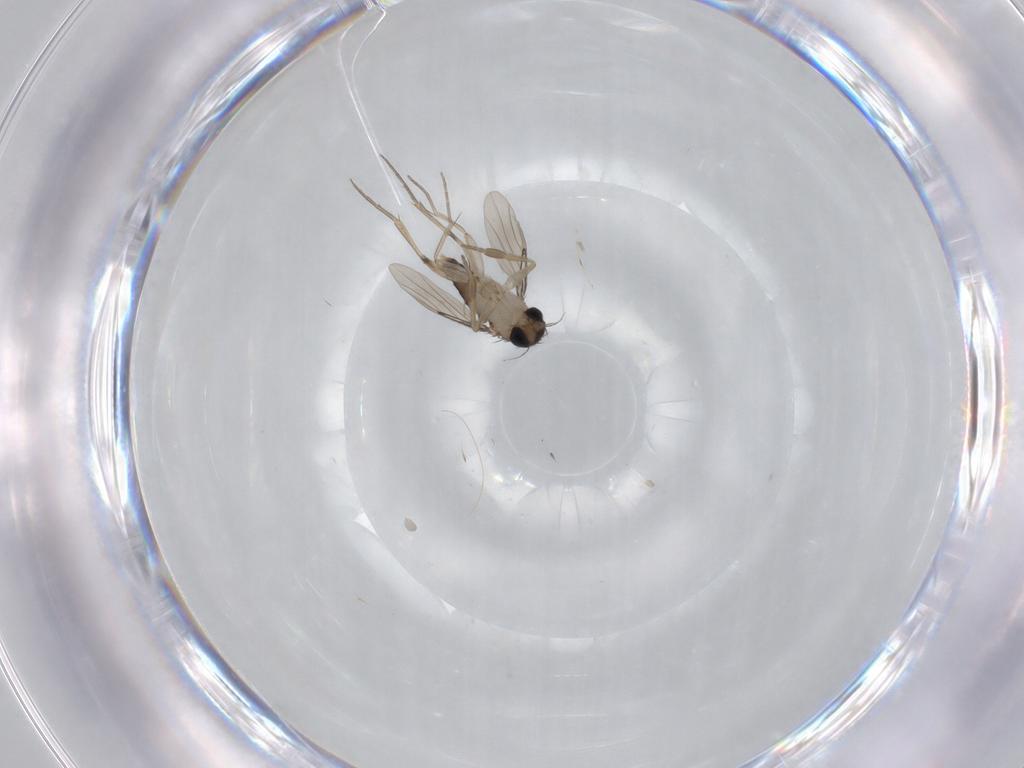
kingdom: Animalia
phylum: Arthropoda
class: Insecta
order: Diptera
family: Phoridae
